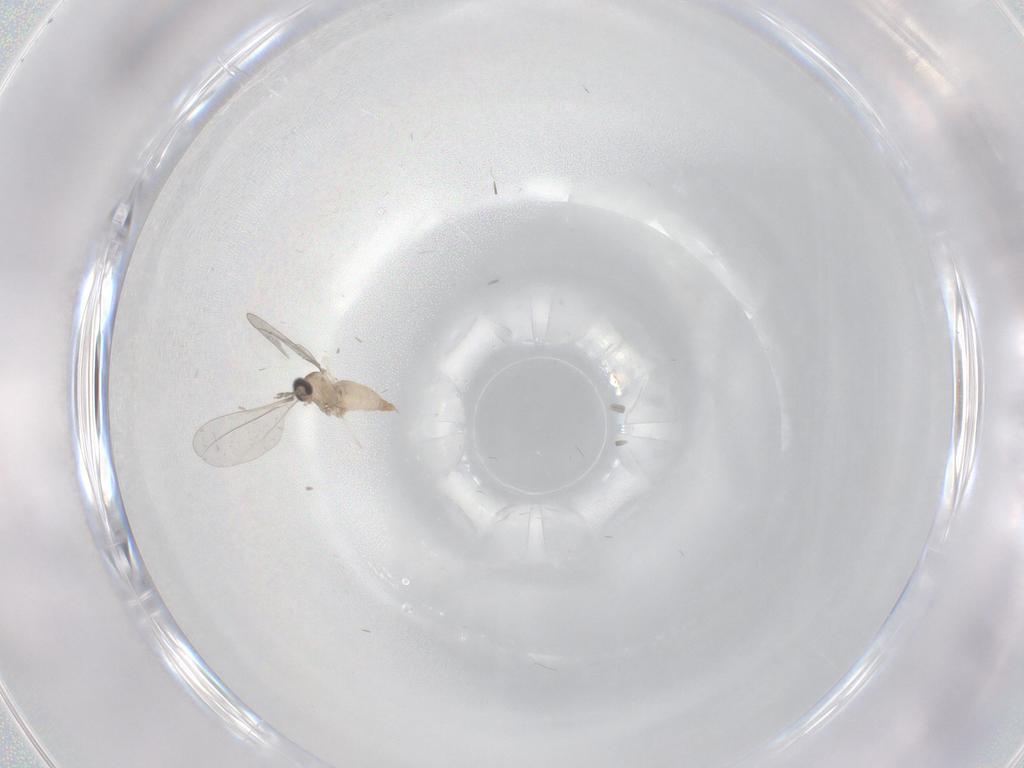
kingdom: Animalia
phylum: Arthropoda
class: Insecta
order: Diptera
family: Cecidomyiidae
